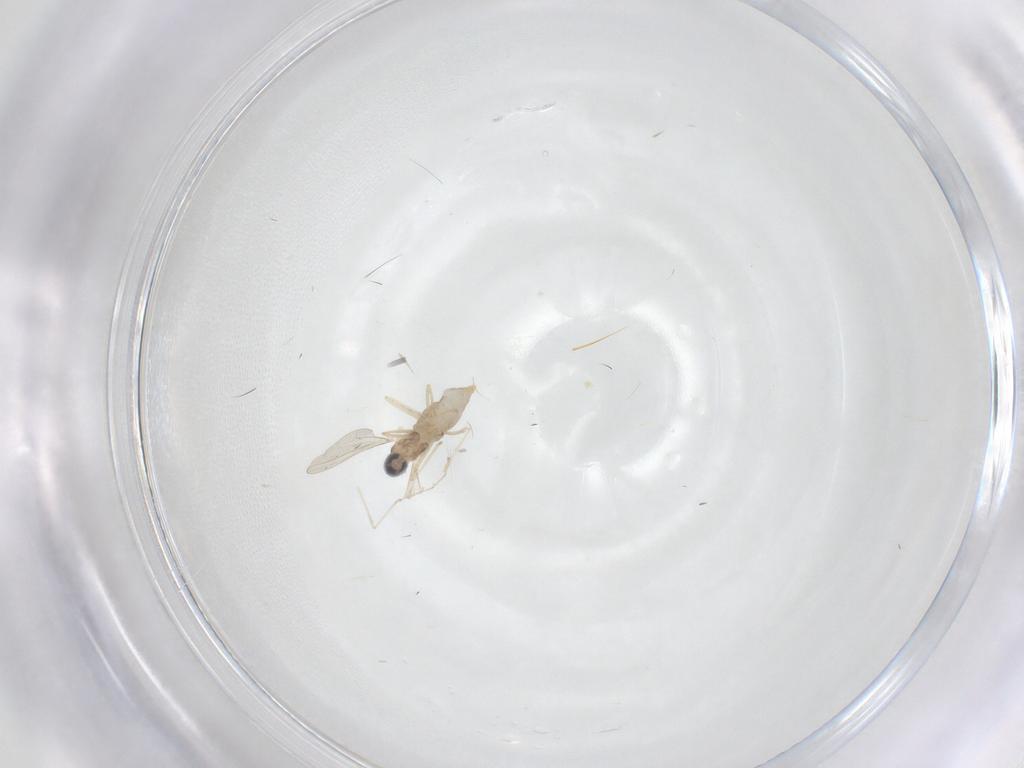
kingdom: Animalia
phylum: Arthropoda
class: Insecta
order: Diptera
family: Cecidomyiidae
